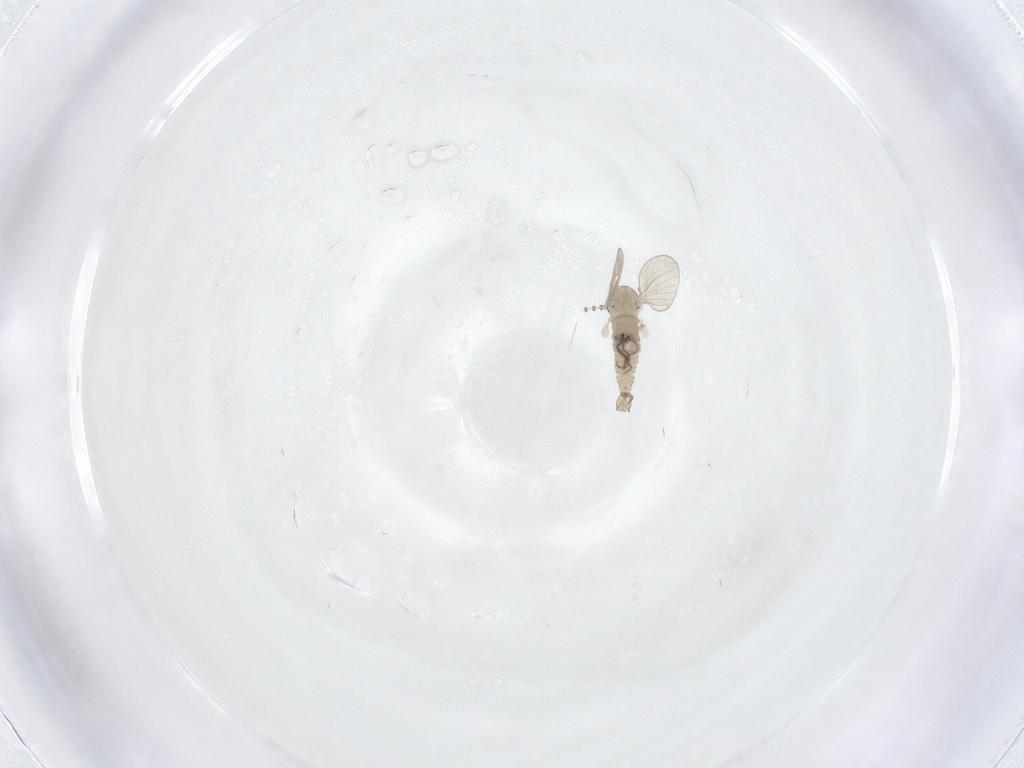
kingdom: Animalia
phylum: Arthropoda
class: Insecta
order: Diptera
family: Psychodidae
